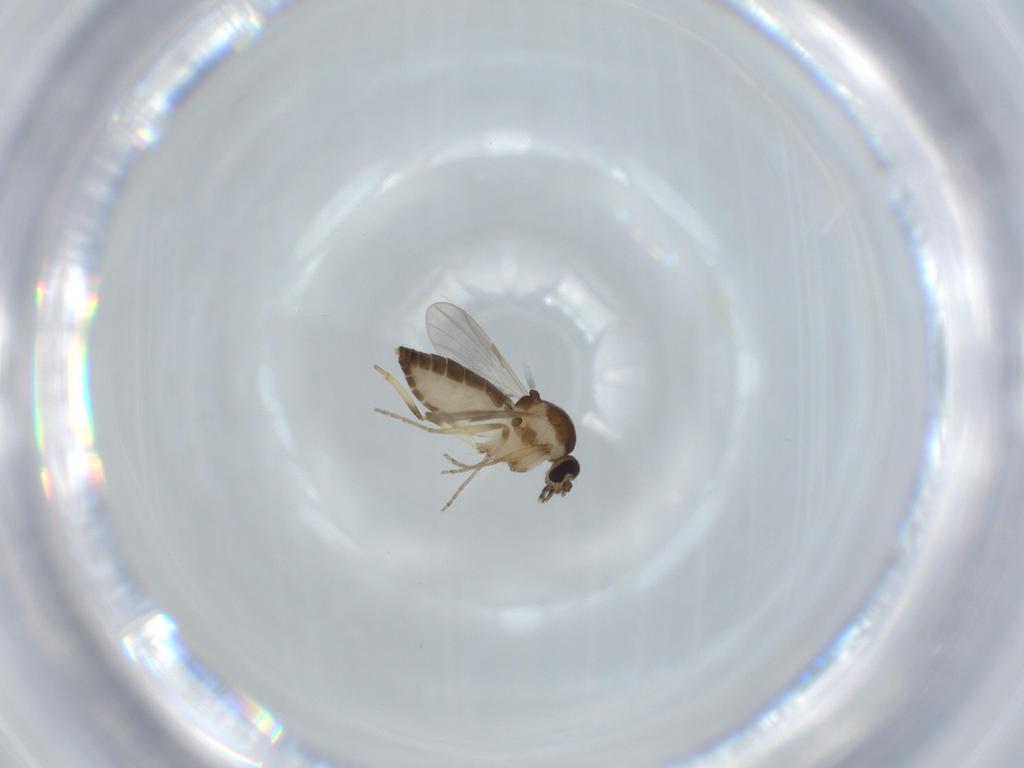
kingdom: Animalia
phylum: Arthropoda
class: Insecta
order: Diptera
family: Ceratopogonidae
